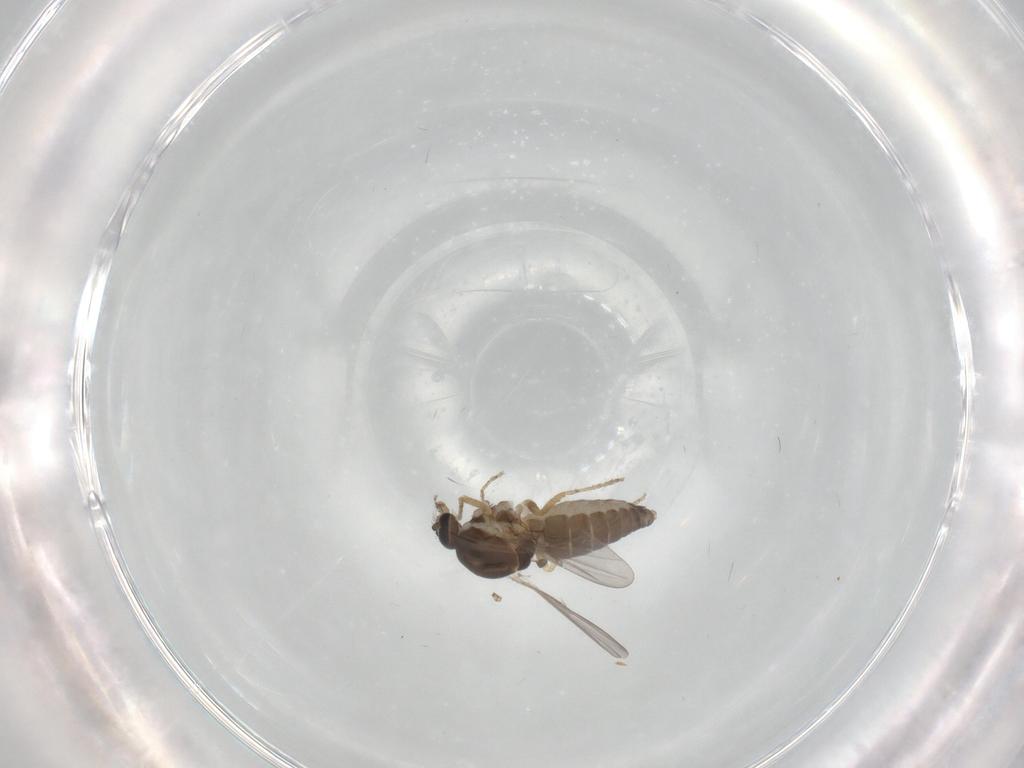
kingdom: Animalia
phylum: Arthropoda
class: Insecta
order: Diptera
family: Ceratopogonidae
